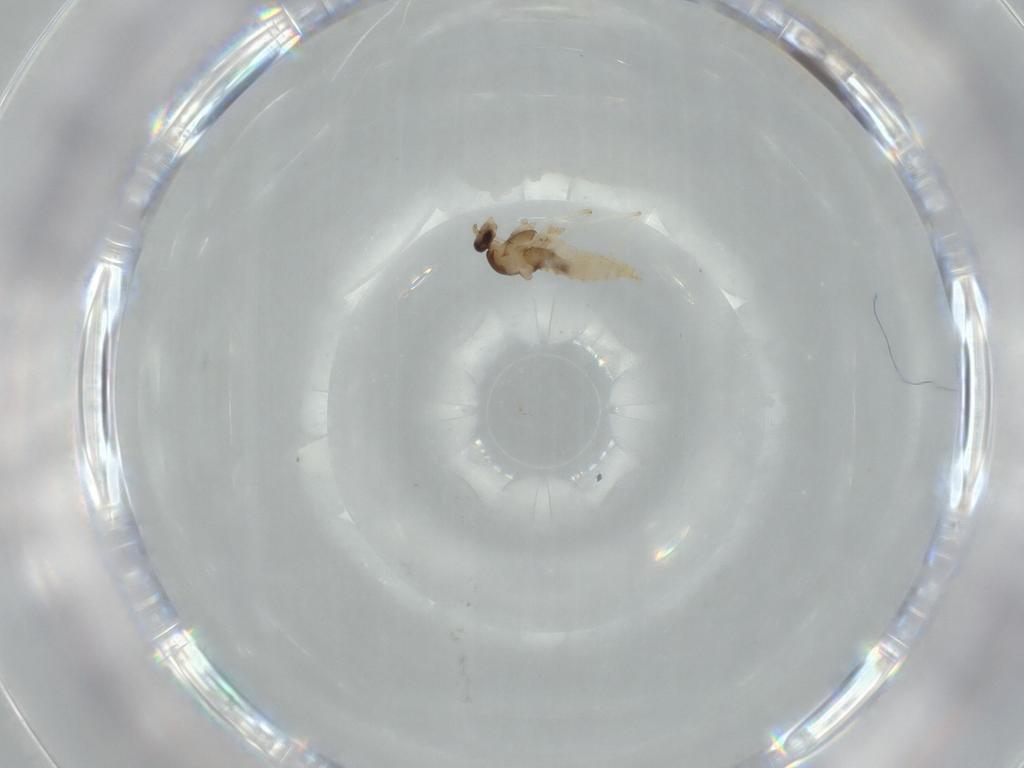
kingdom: Animalia
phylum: Arthropoda
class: Insecta
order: Diptera
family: Cecidomyiidae
